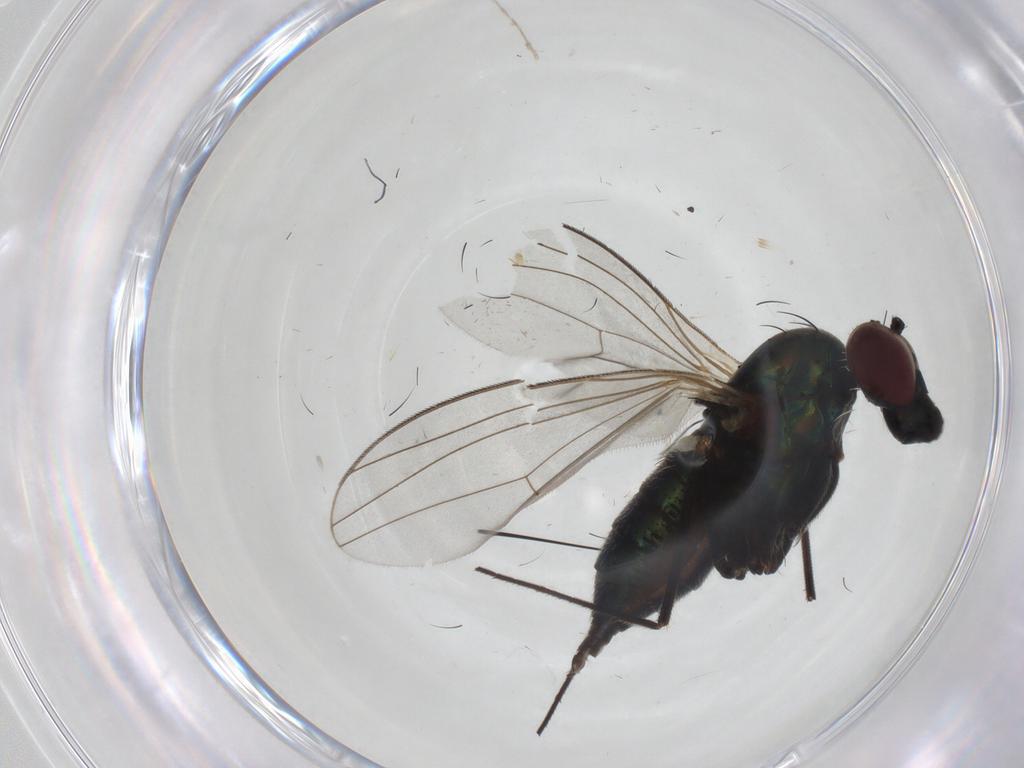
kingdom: Animalia
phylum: Arthropoda
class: Insecta
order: Diptera
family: Dolichopodidae
